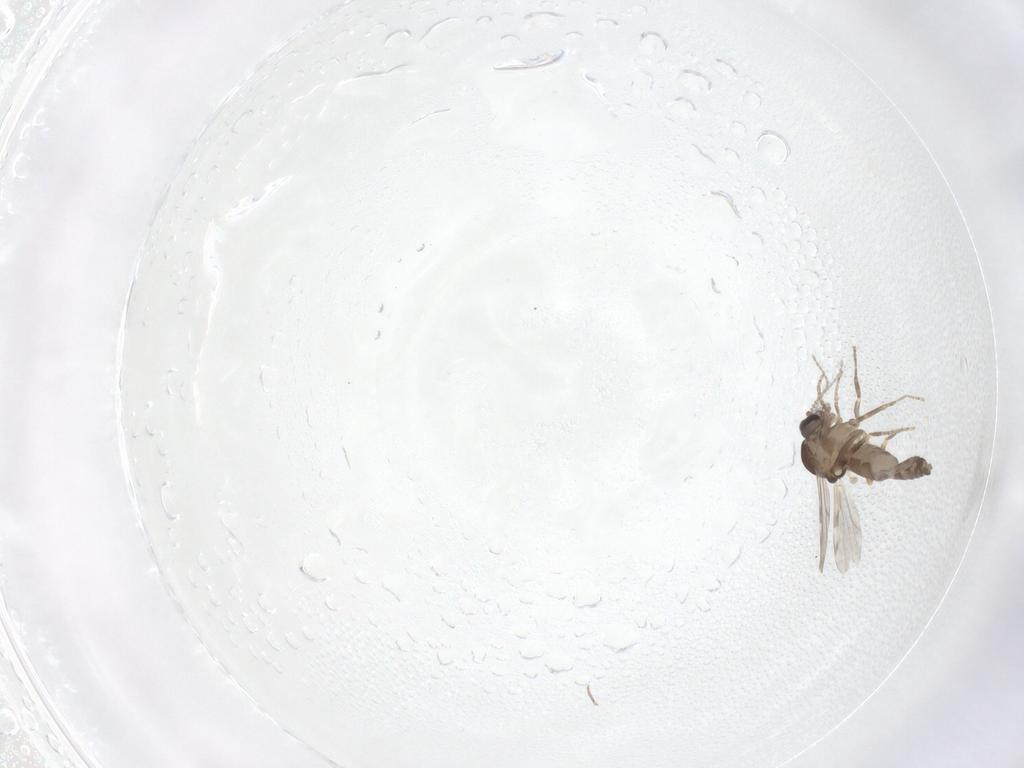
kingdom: Animalia
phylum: Arthropoda
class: Insecta
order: Diptera
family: Ceratopogonidae
